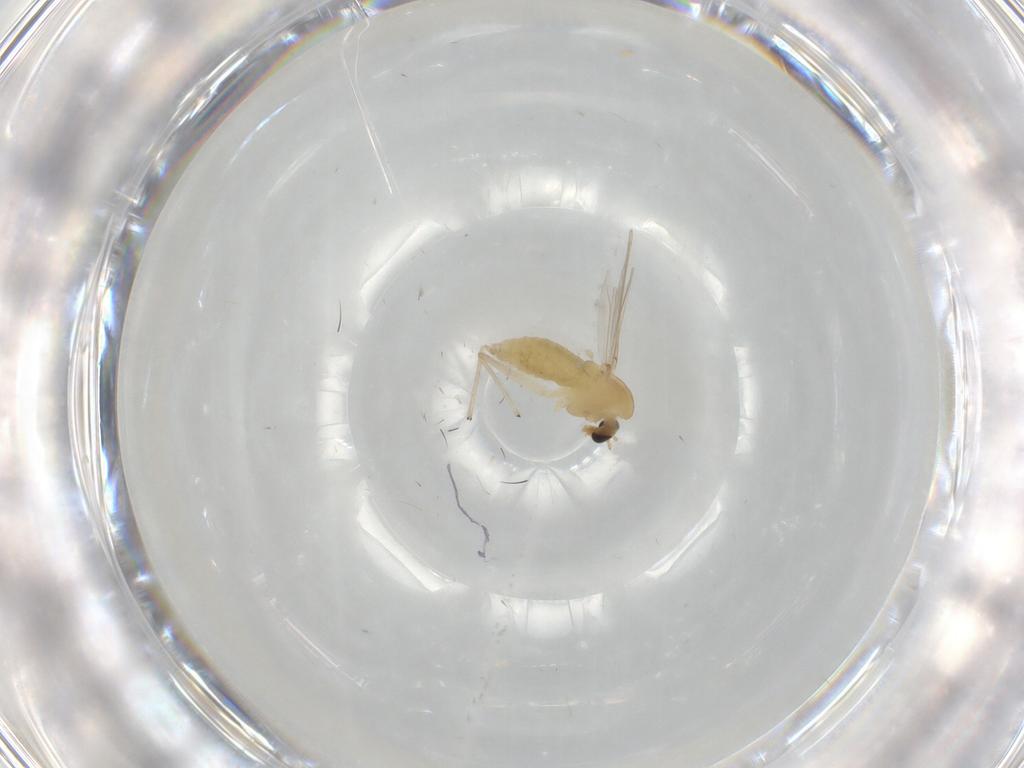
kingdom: Animalia
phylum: Arthropoda
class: Insecta
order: Diptera
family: Chironomidae
